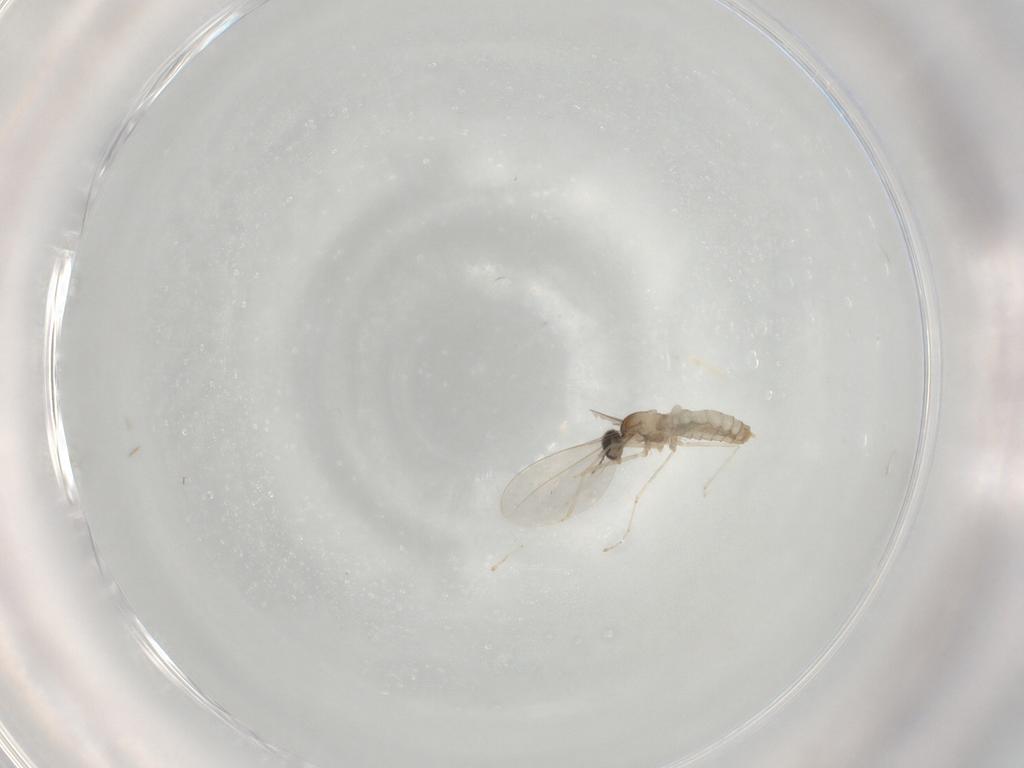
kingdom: Animalia
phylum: Arthropoda
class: Insecta
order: Diptera
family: Cecidomyiidae
